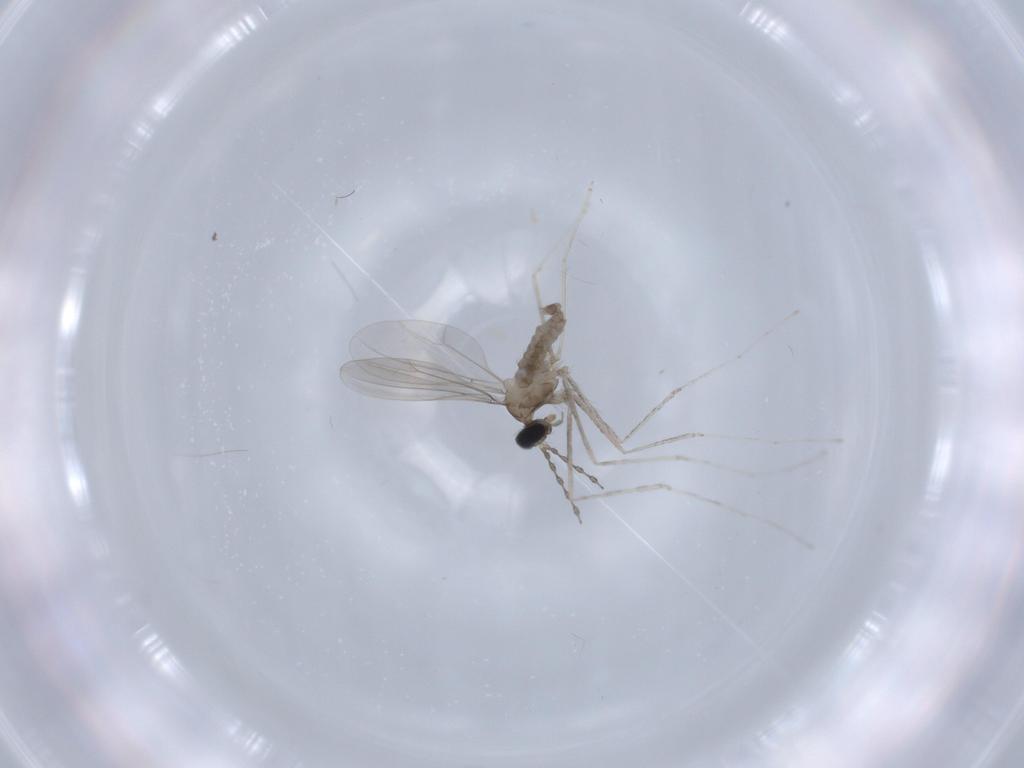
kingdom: Animalia
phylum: Arthropoda
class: Insecta
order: Diptera
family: Cecidomyiidae
